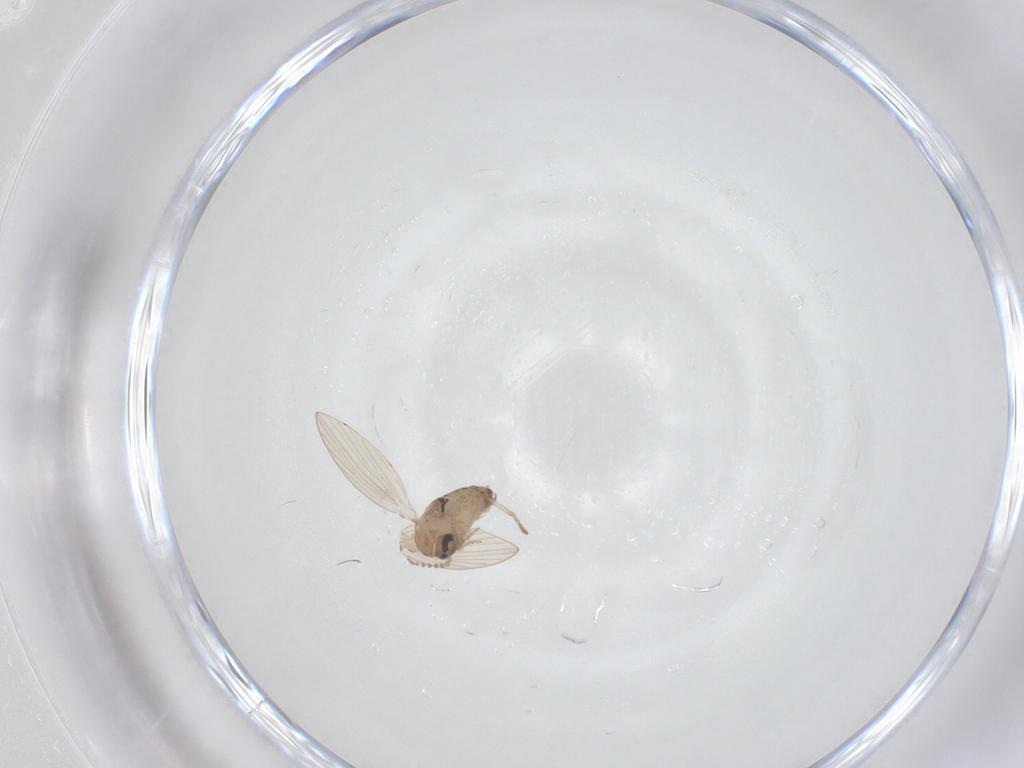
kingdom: Animalia
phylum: Arthropoda
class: Insecta
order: Diptera
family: Psychodidae
